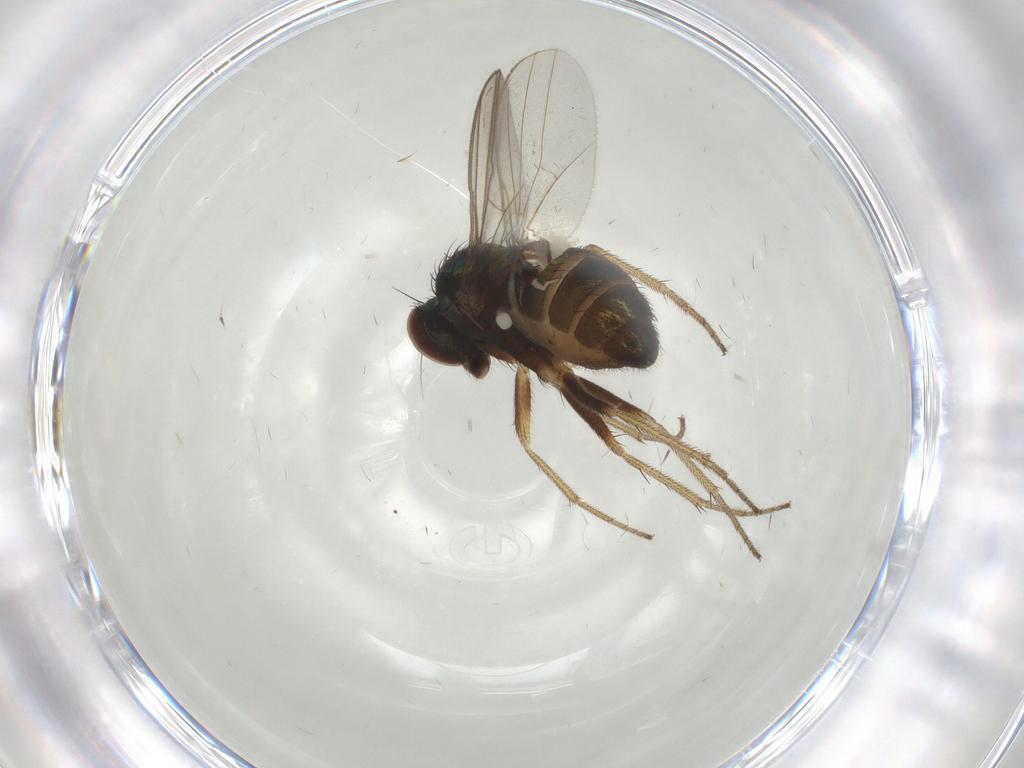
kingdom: Animalia
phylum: Arthropoda
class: Insecta
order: Diptera
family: Dolichopodidae
